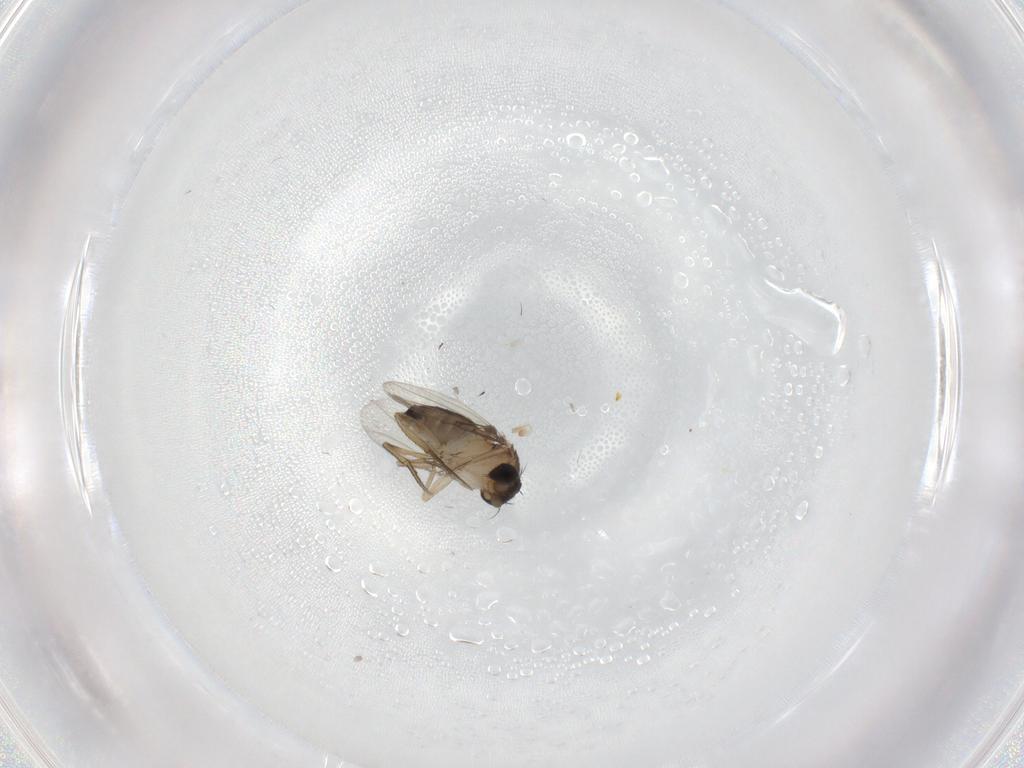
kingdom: Animalia
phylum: Arthropoda
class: Insecta
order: Diptera
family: Phoridae
